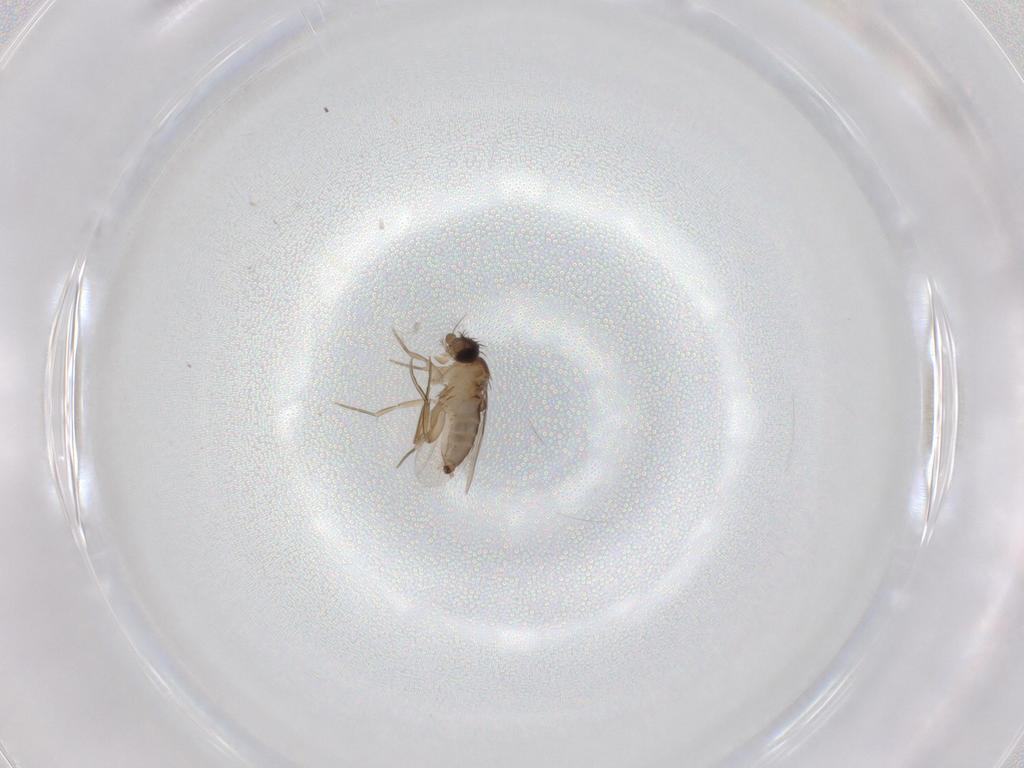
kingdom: Animalia
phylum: Arthropoda
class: Insecta
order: Diptera
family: Phoridae
